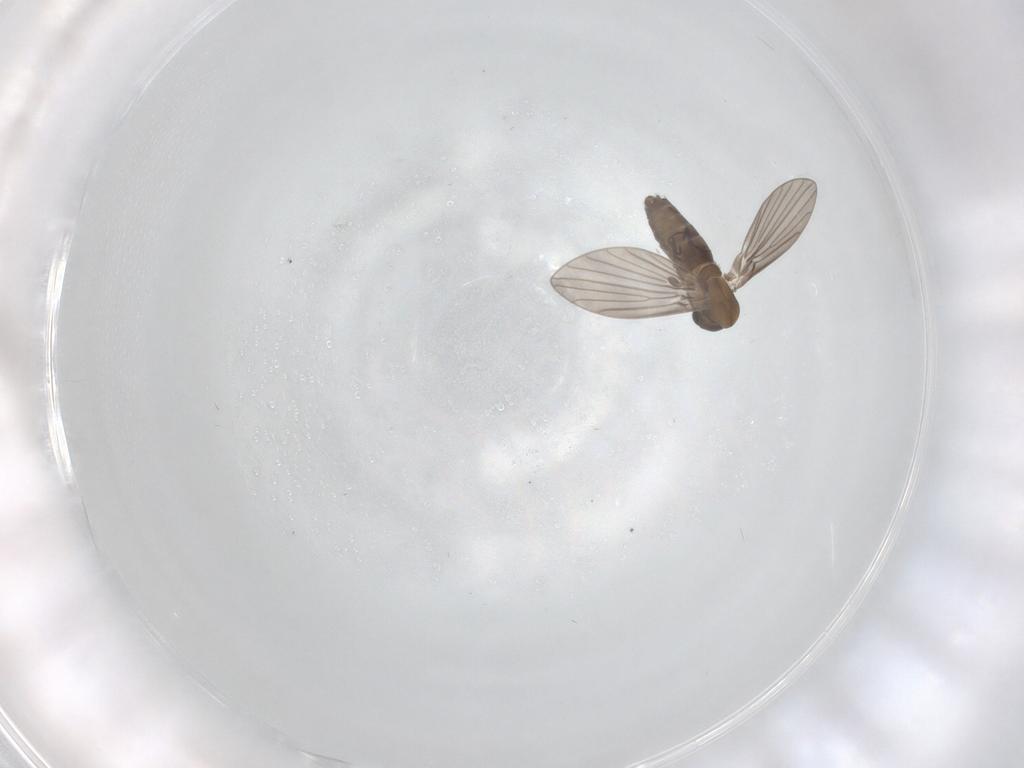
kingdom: Animalia
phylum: Arthropoda
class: Insecta
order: Diptera
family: Psychodidae
